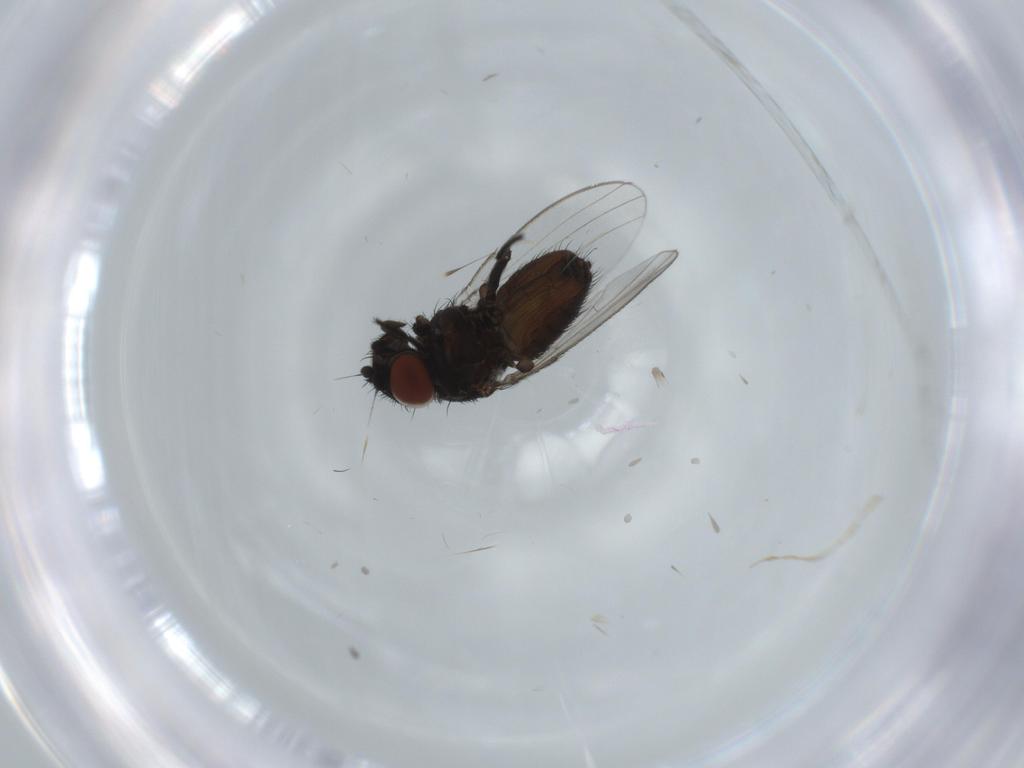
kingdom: Animalia
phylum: Arthropoda
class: Insecta
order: Diptera
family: Milichiidae
